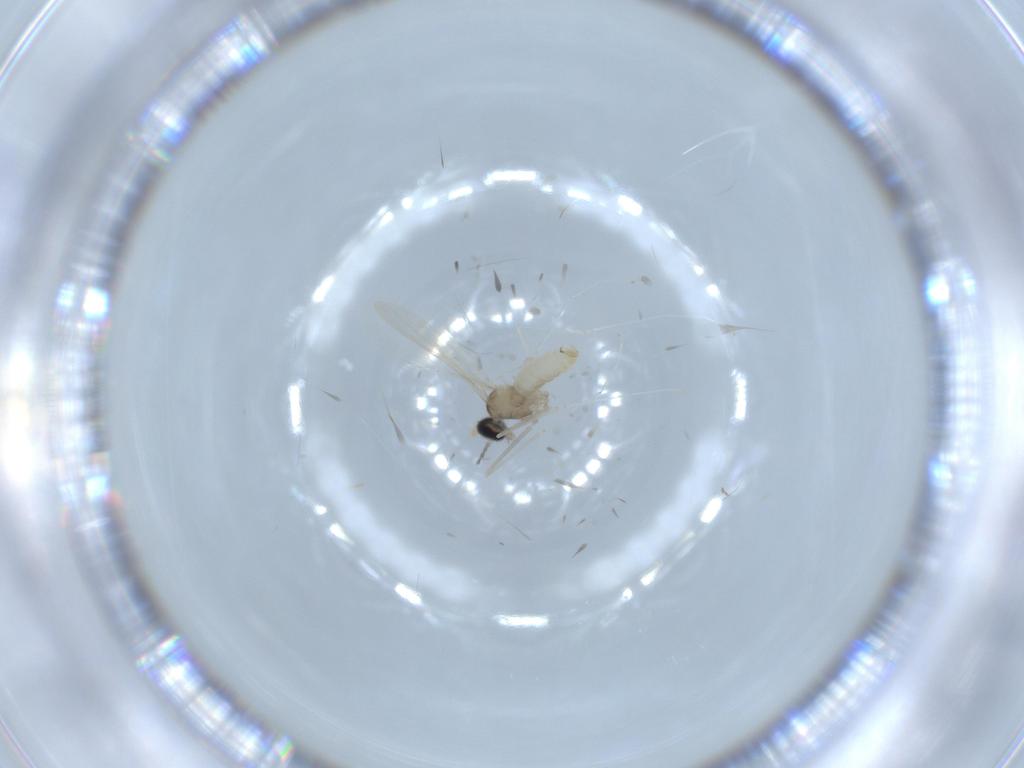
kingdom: Animalia
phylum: Arthropoda
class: Insecta
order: Diptera
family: Cecidomyiidae
